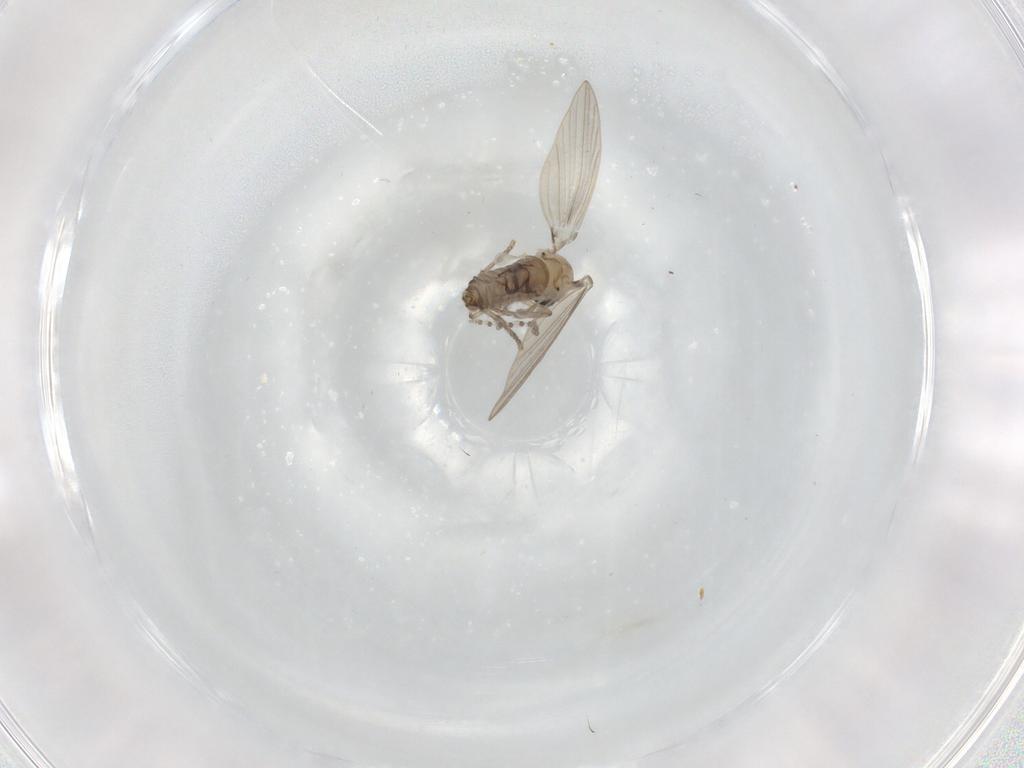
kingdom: Animalia
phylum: Arthropoda
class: Insecta
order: Diptera
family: Psychodidae
